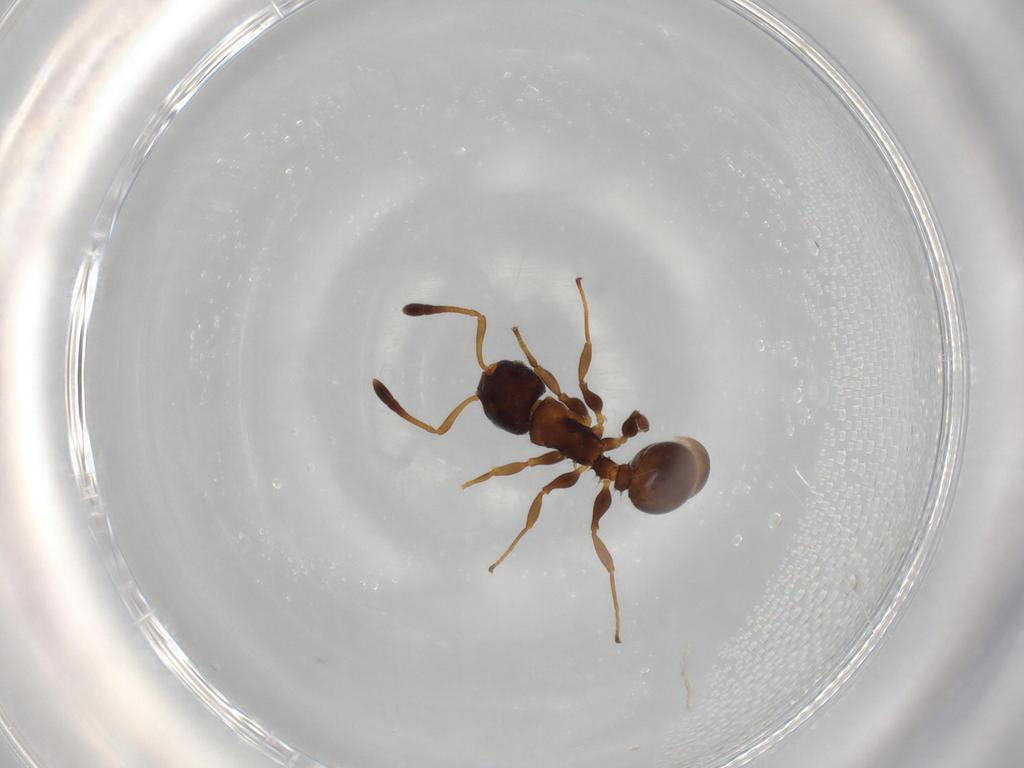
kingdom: Animalia
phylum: Arthropoda
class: Insecta
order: Hymenoptera
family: Formicidae
